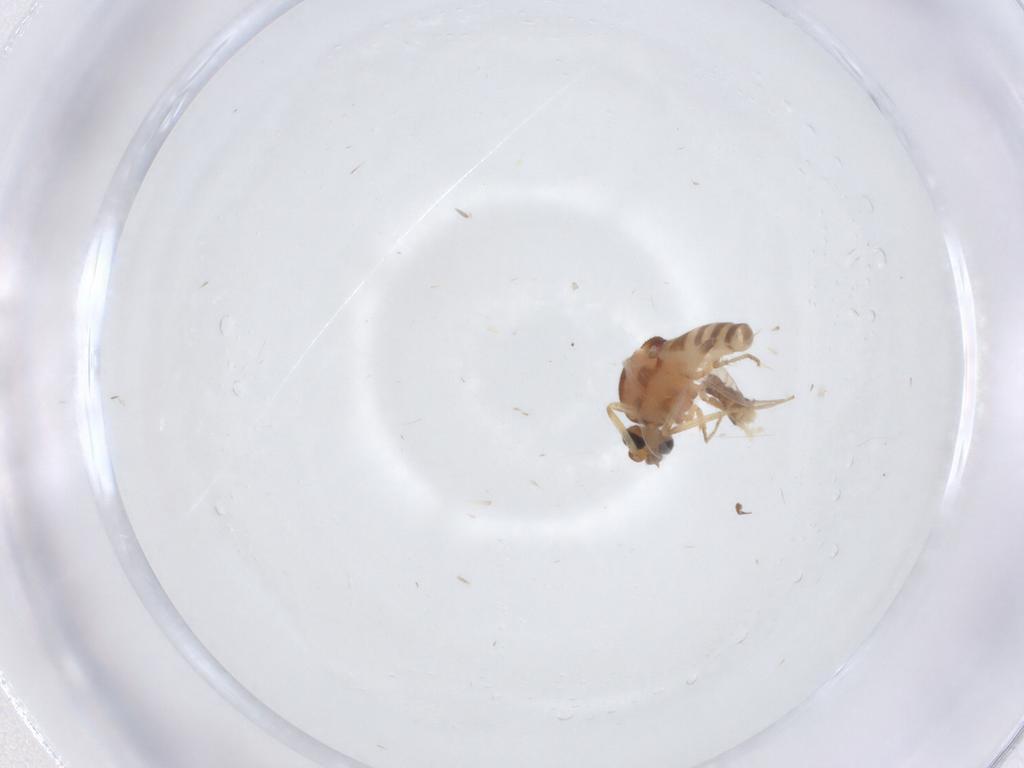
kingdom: Animalia
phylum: Arthropoda
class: Insecta
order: Diptera
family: Ceratopogonidae
